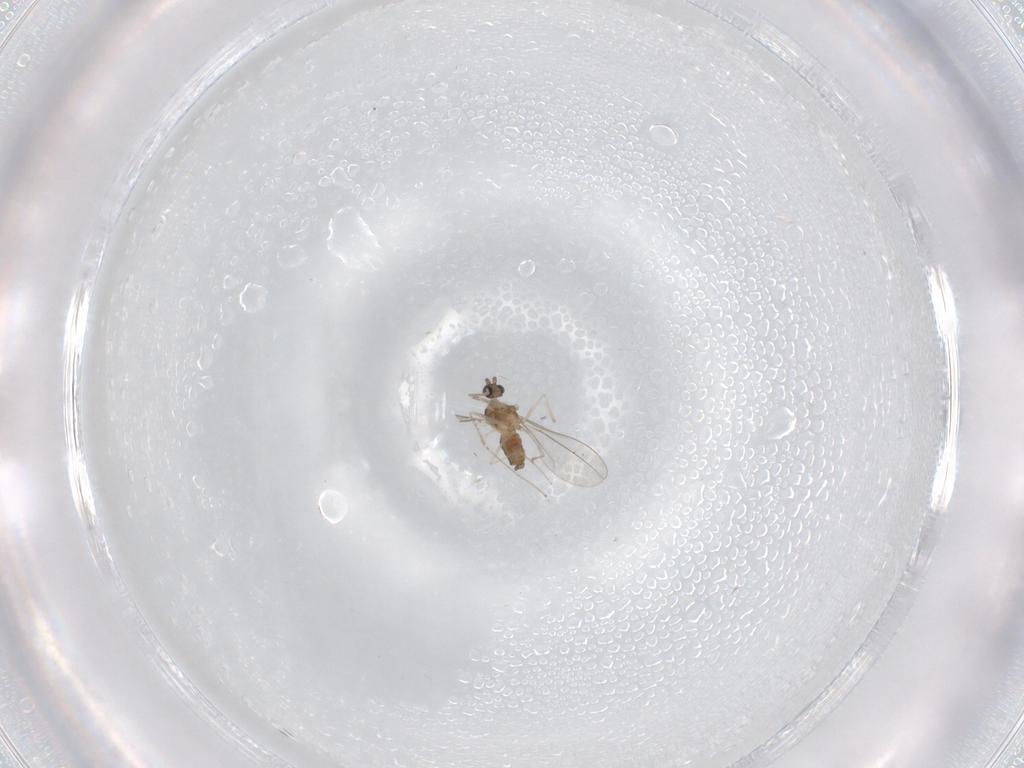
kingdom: Animalia
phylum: Arthropoda
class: Insecta
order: Diptera
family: Cecidomyiidae
